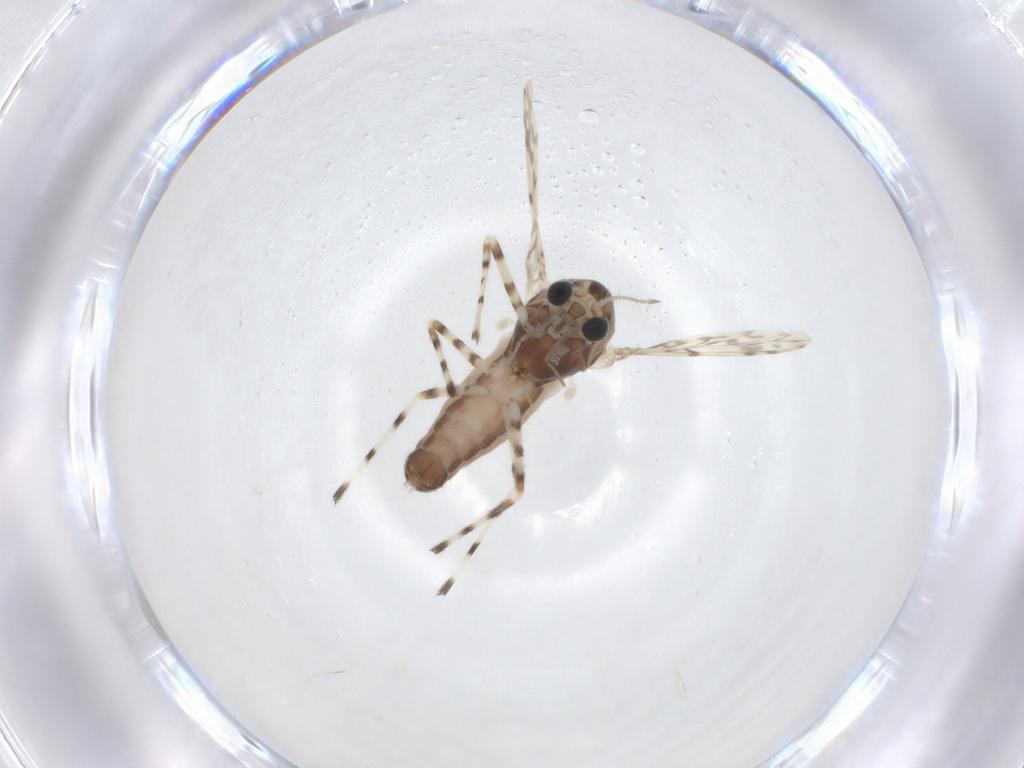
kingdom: Animalia
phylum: Arthropoda
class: Insecta
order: Diptera
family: Chironomidae
